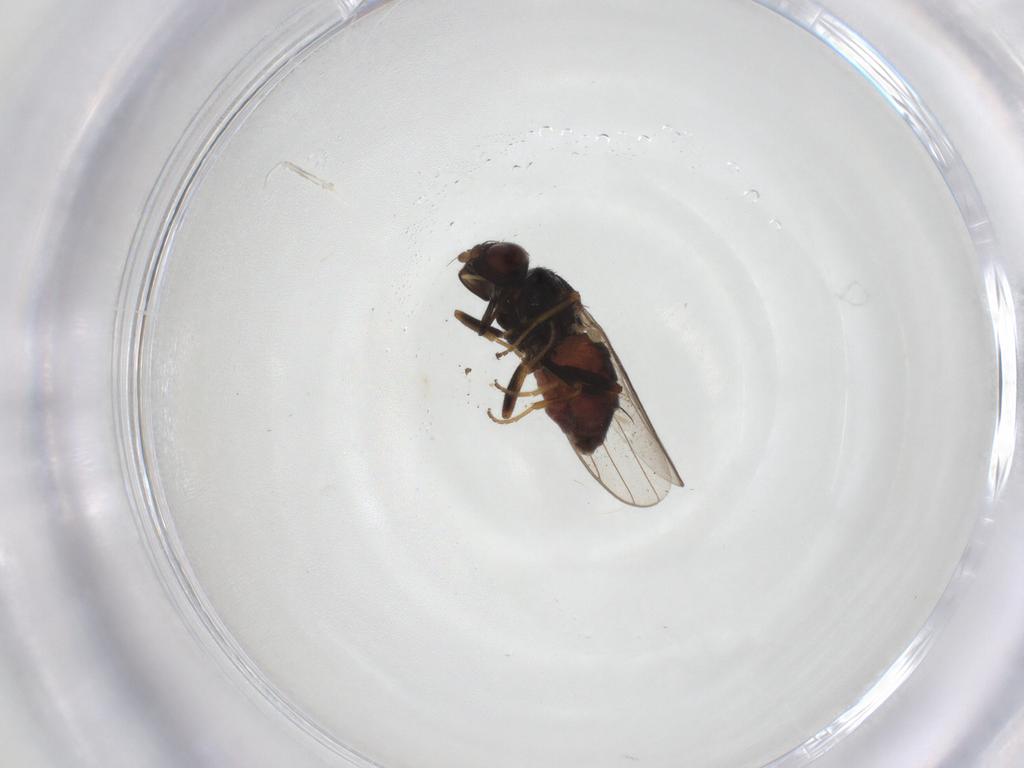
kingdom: Animalia
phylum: Arthropoda
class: Insecta
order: Diptera
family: Chloropidae
